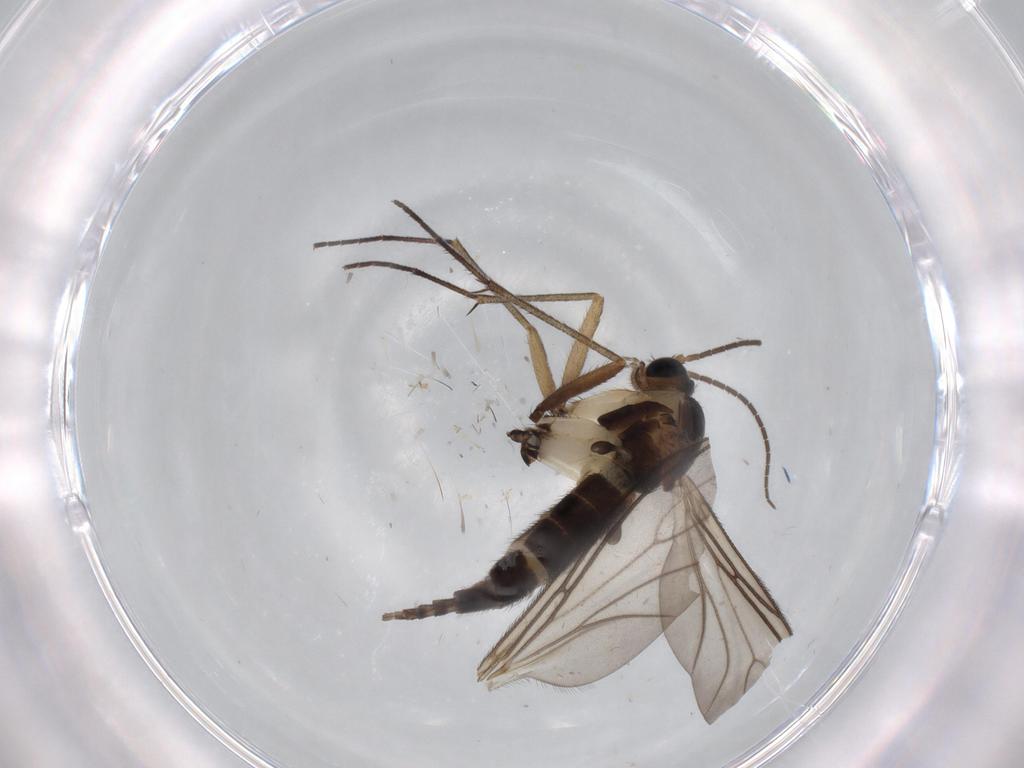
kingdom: Animalia
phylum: Arthropoda
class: Insecta
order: Diptera
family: Sciaridae
